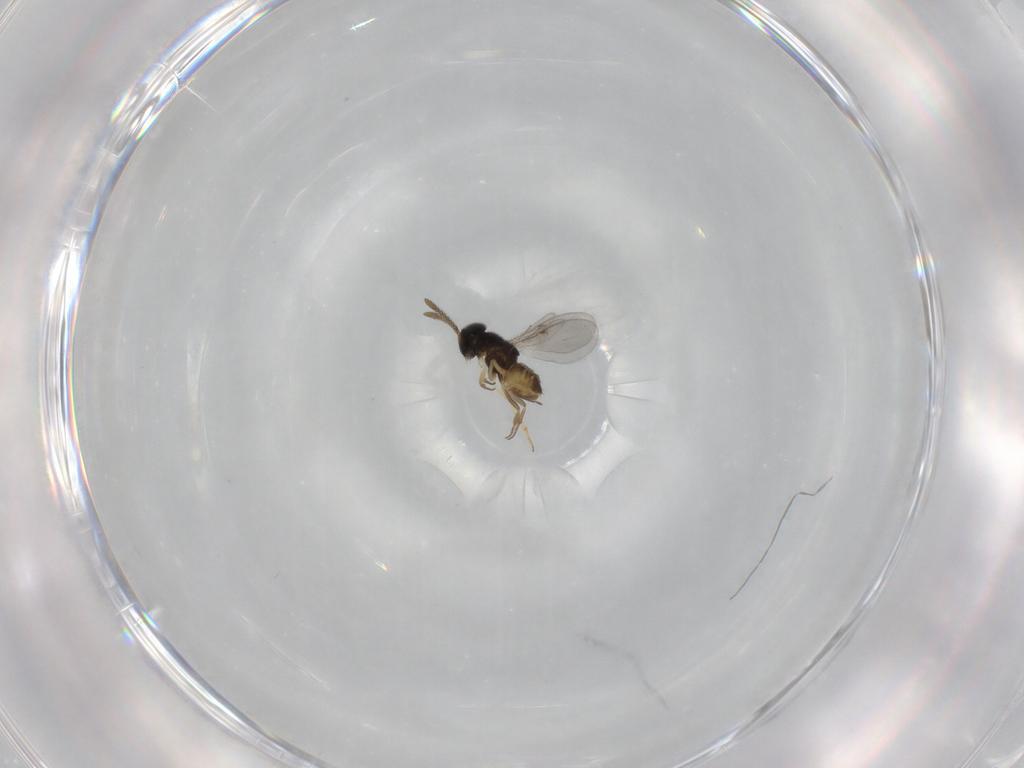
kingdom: Animalia
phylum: Arthropoda
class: Insecta
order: Hymenoptera
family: Encyrtidae
